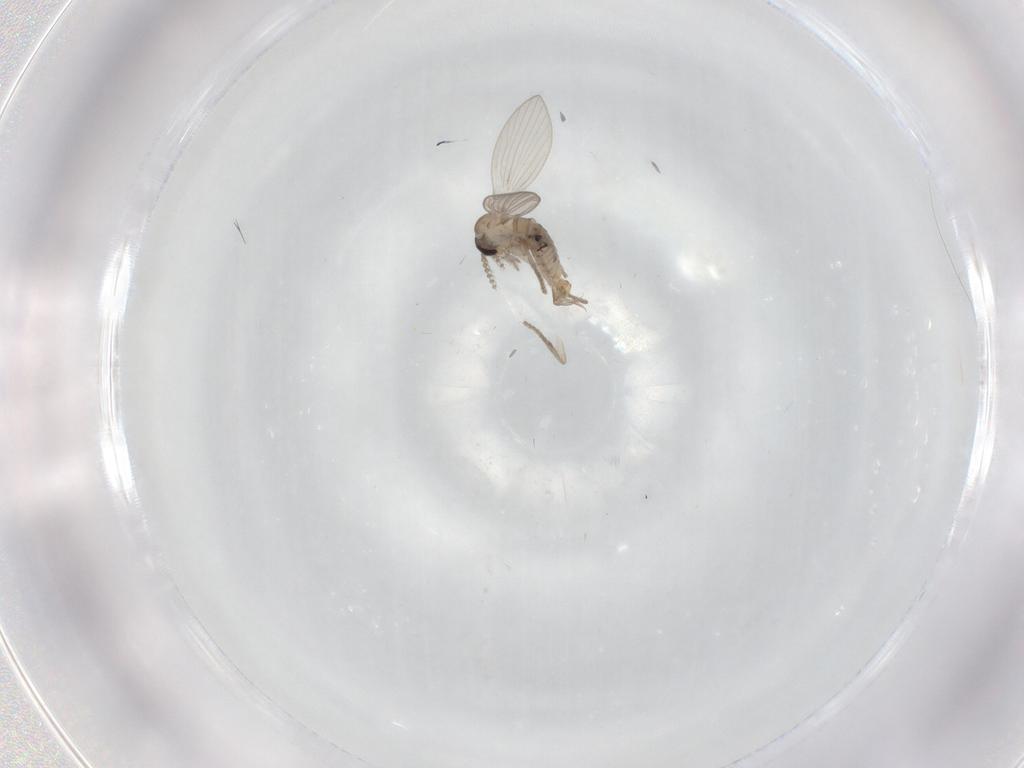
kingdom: Animalia
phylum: Arthropoda
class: Insecta
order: Diptera
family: Psychodidae
